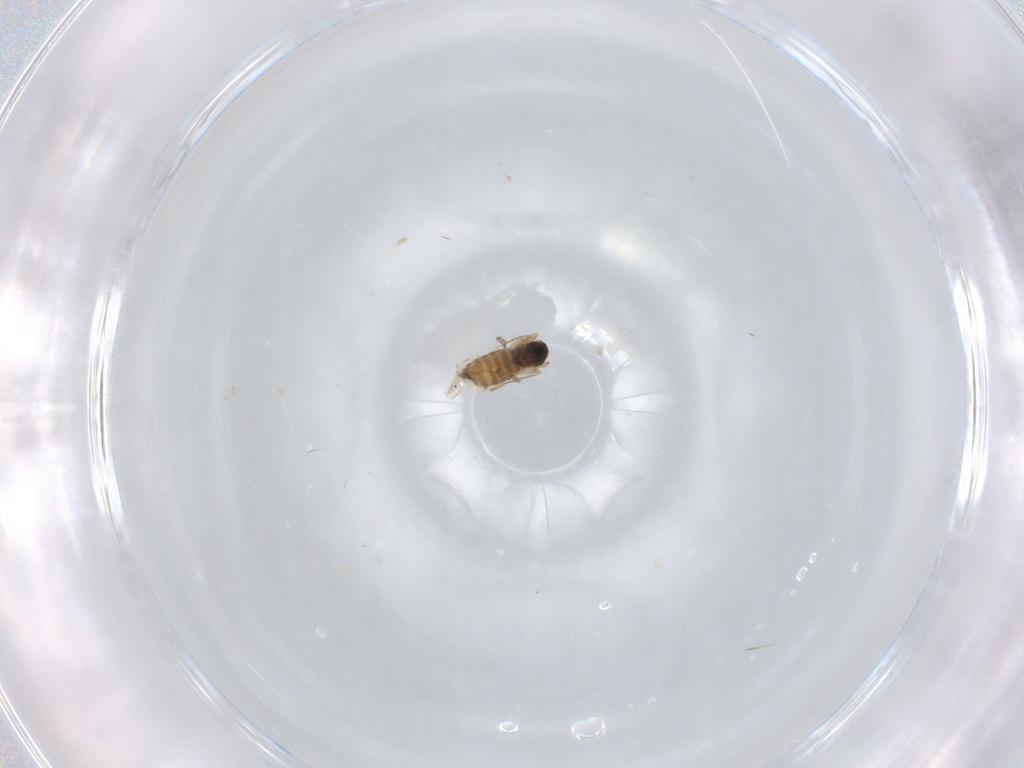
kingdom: Animalia
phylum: Arthropoda
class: Insecta
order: Diptera
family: Cecidomyiidae
